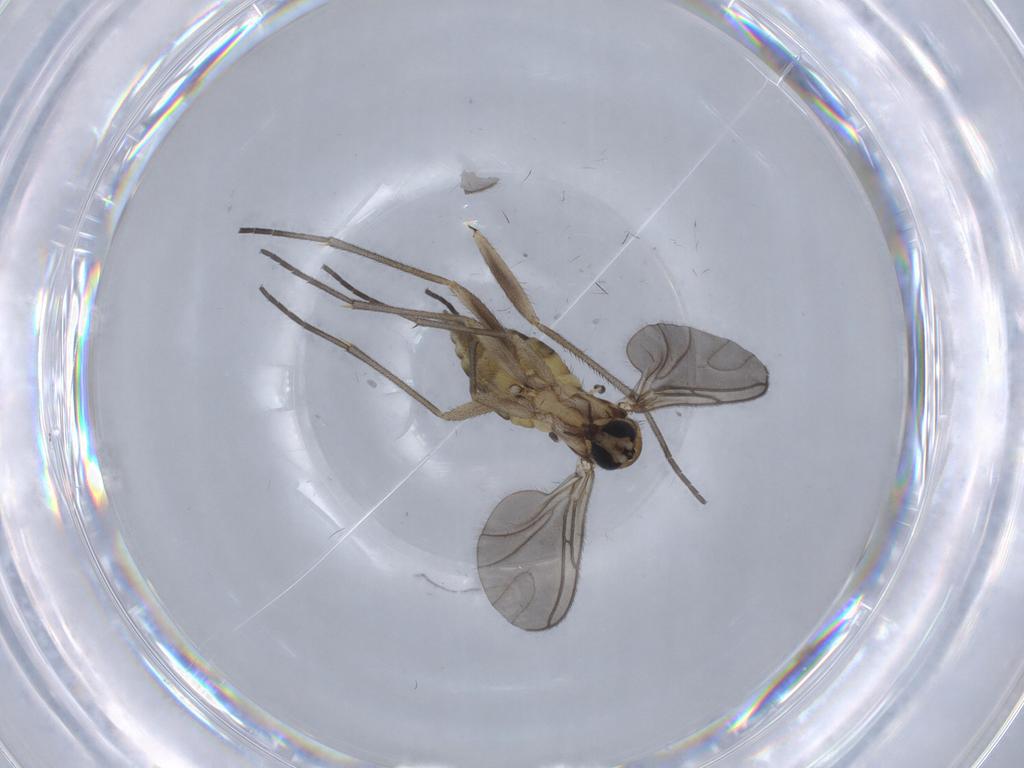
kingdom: Animalia
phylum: Arthropoda
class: Insecta
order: Diptera
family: Sciaridae
